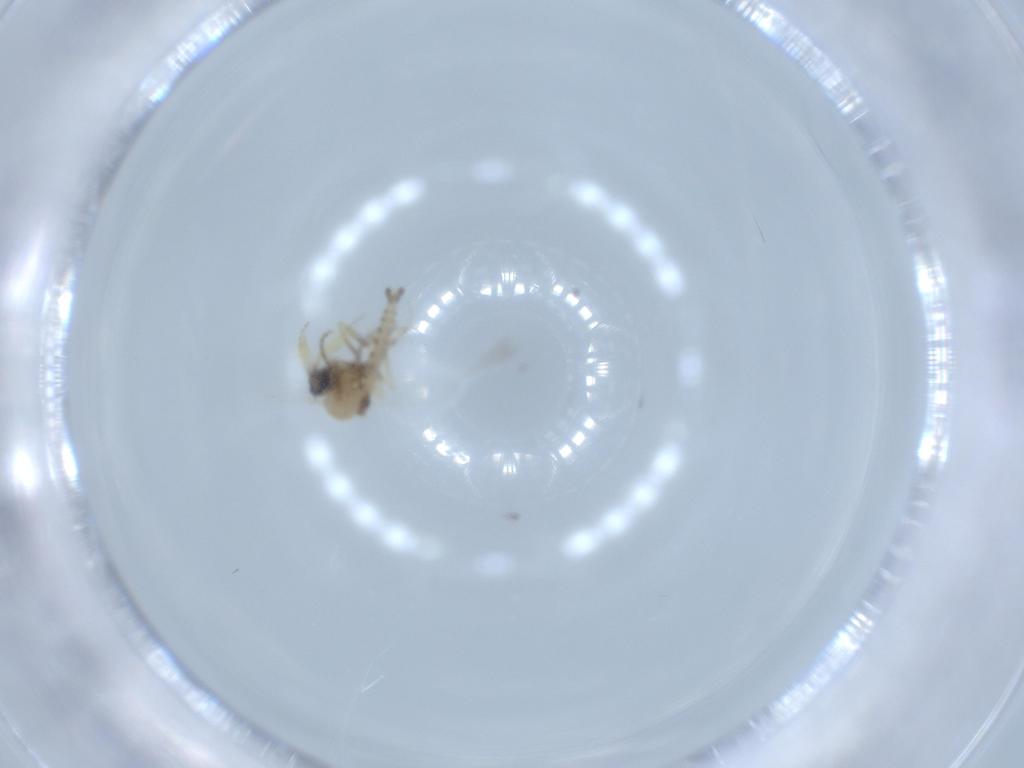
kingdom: Animalia
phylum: Arthropoda
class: Insecta
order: Diptera
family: Ceratopogonidae
